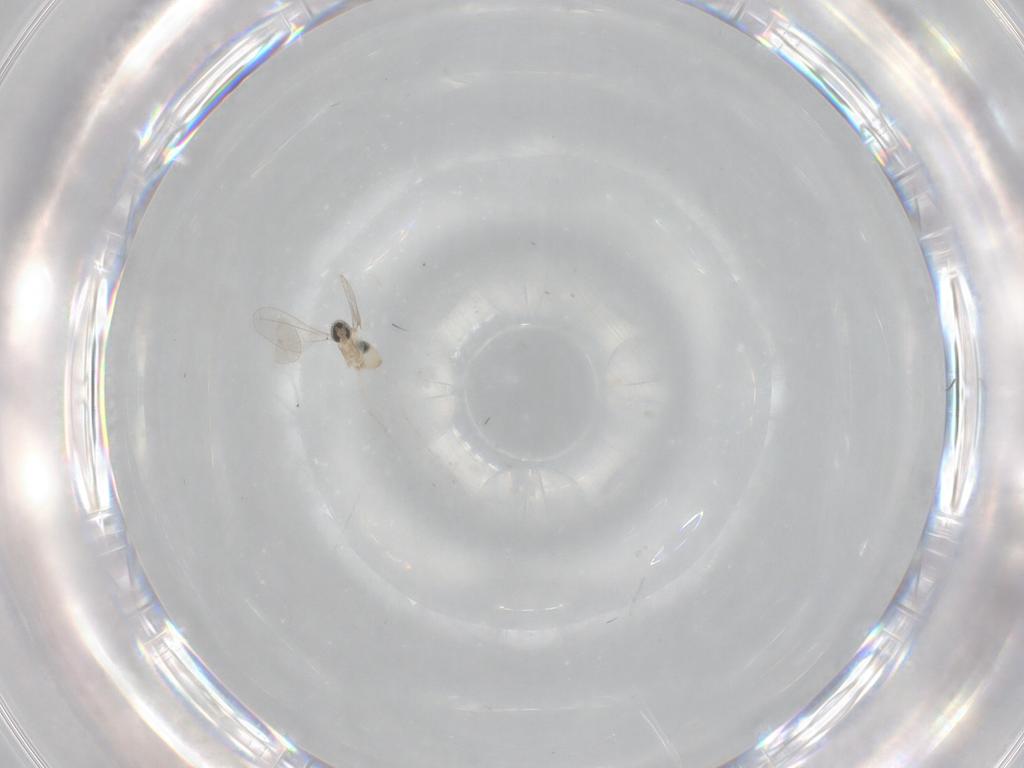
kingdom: Animalia
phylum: Arthropoda
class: Insecta
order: Diptera
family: Cecidomyiidae
